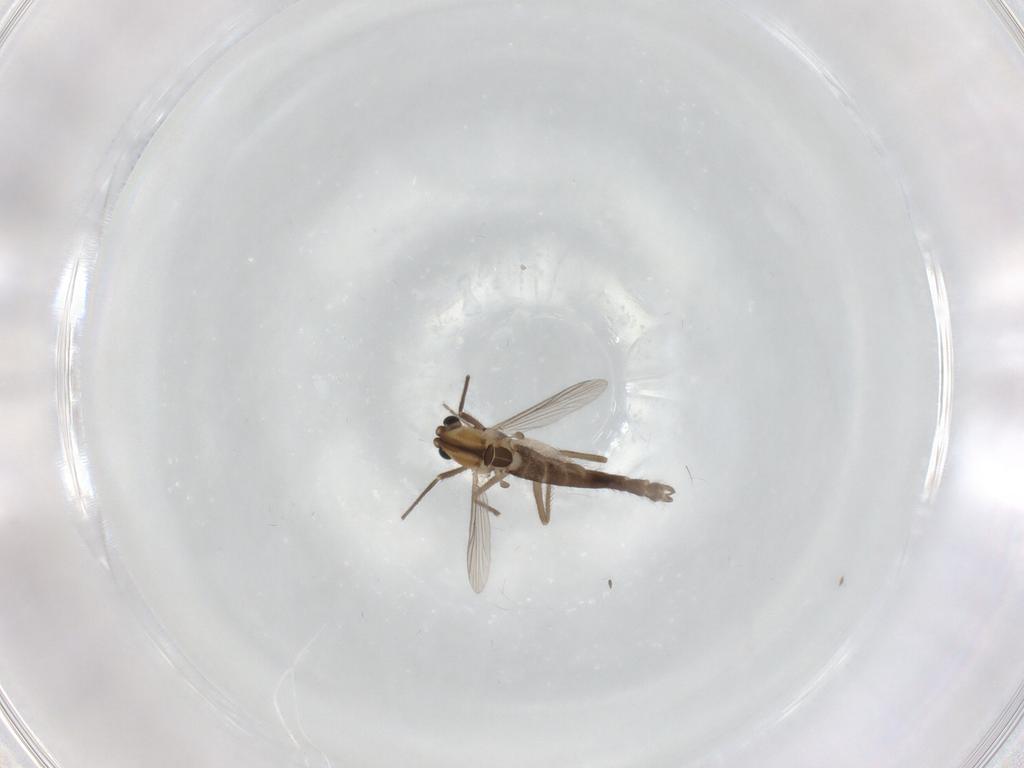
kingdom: Animalia
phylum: Arthropoda
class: Insecta
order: Diptera
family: Chironomidae
